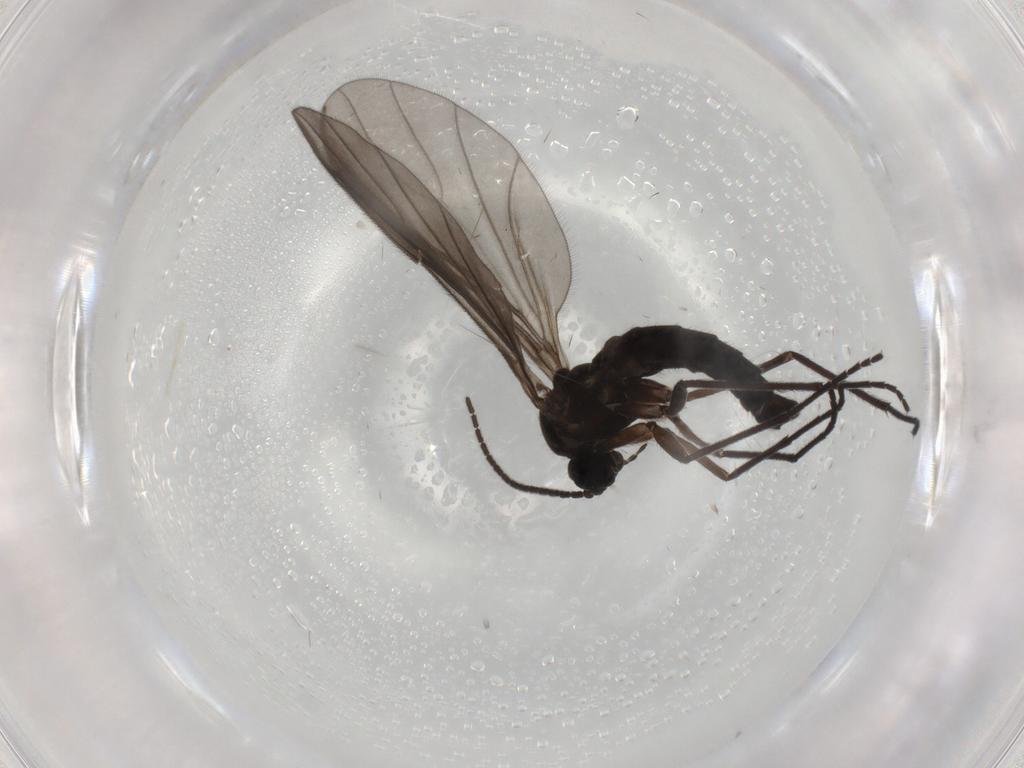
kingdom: Animalia
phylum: Arthropoda
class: Insecta
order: Diptera
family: Sciaridae
